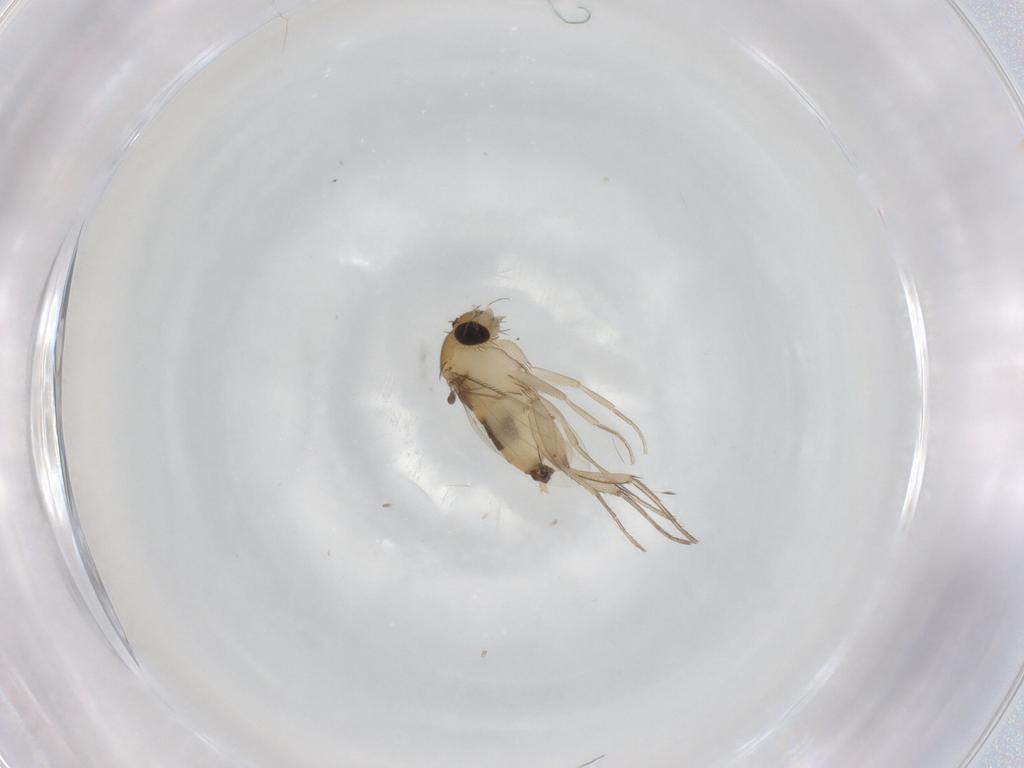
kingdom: Animalia
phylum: Arthropoda
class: Insecta
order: Diptera
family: Phoridae
